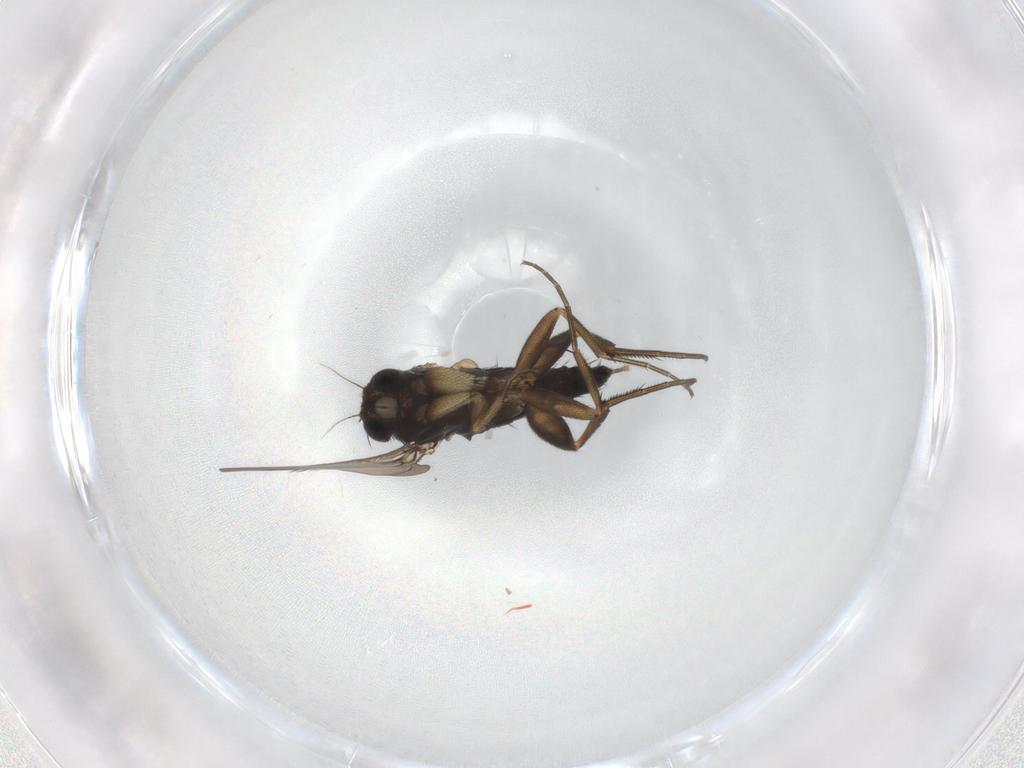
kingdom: Animalia
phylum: Arthropoda
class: Insecta
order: Diptera
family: Phoridae
